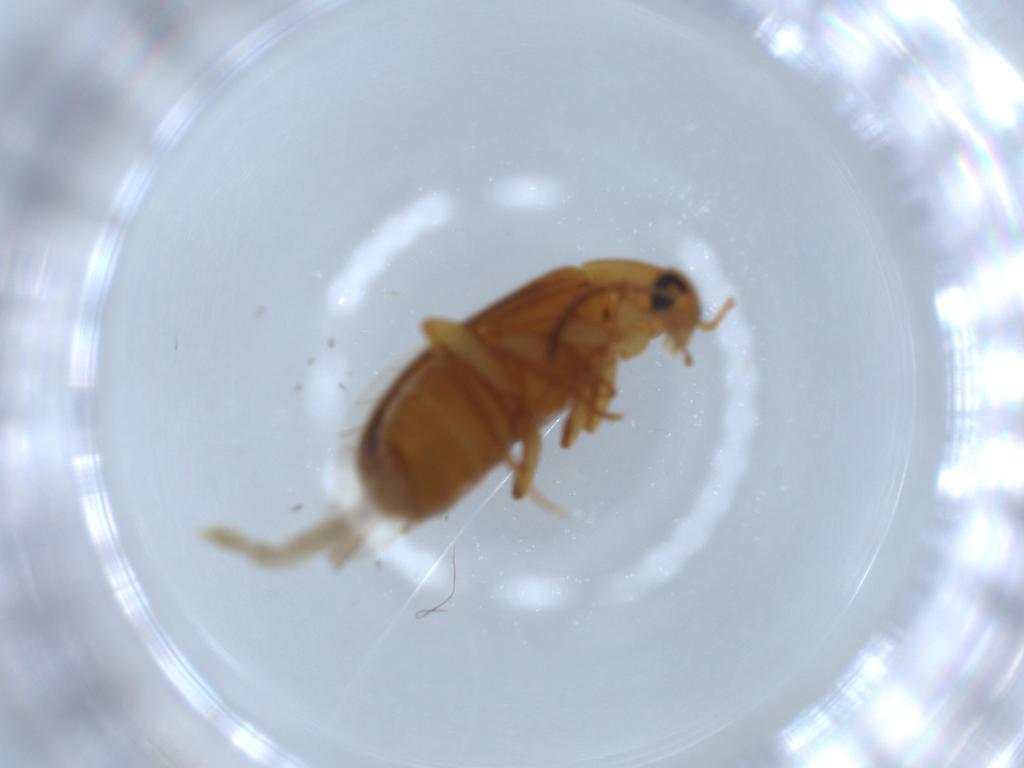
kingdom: Animalia
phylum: Arthropoda
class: Insecta
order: Coleoptera
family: Scraptiidae
